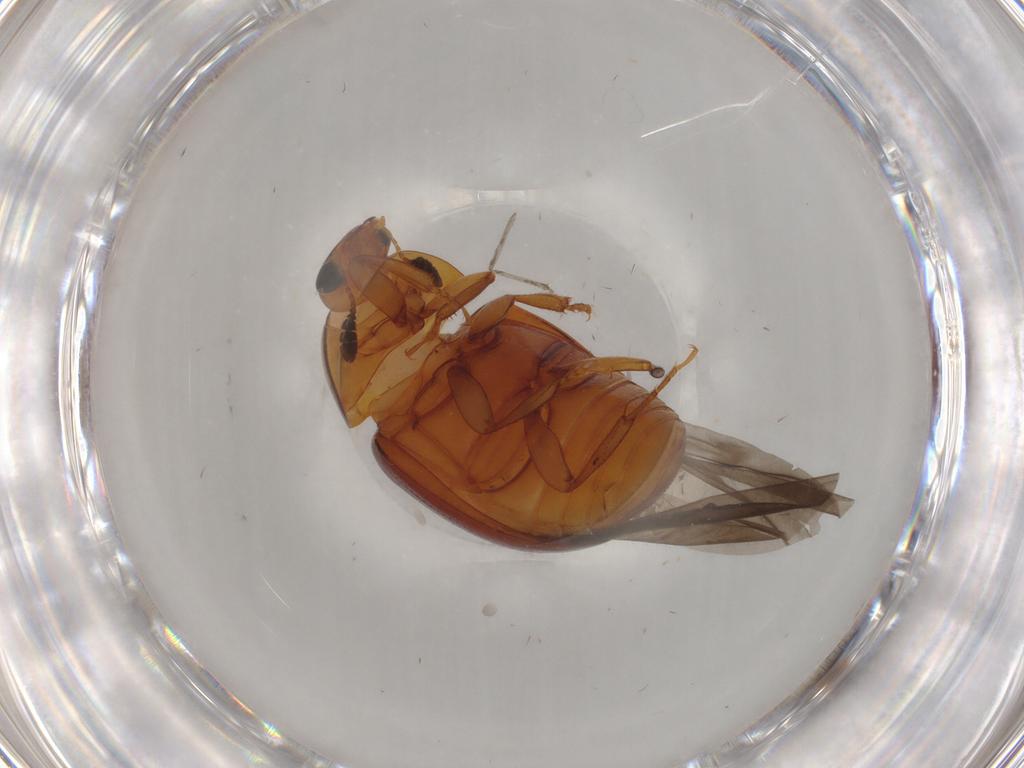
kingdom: Animalia
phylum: Arthropoda
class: Insecta
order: Coleoptera
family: Nitidulidae
